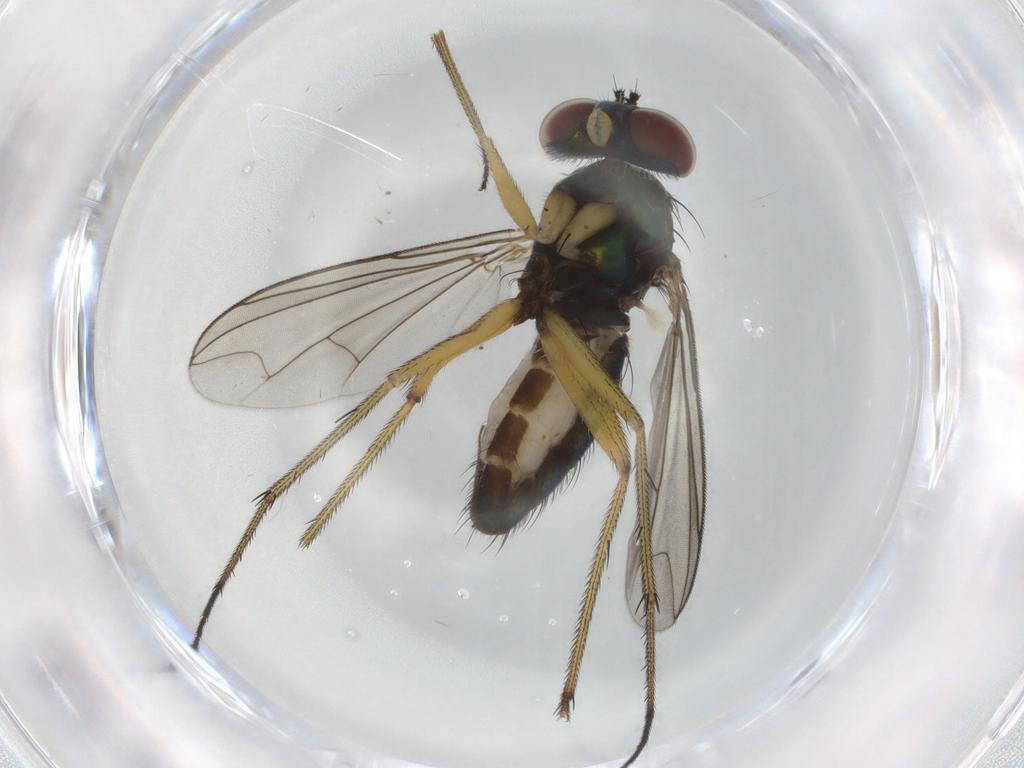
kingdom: Animalia
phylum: Arthropoda
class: Insecta
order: Diptera
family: Dolichopodidae
